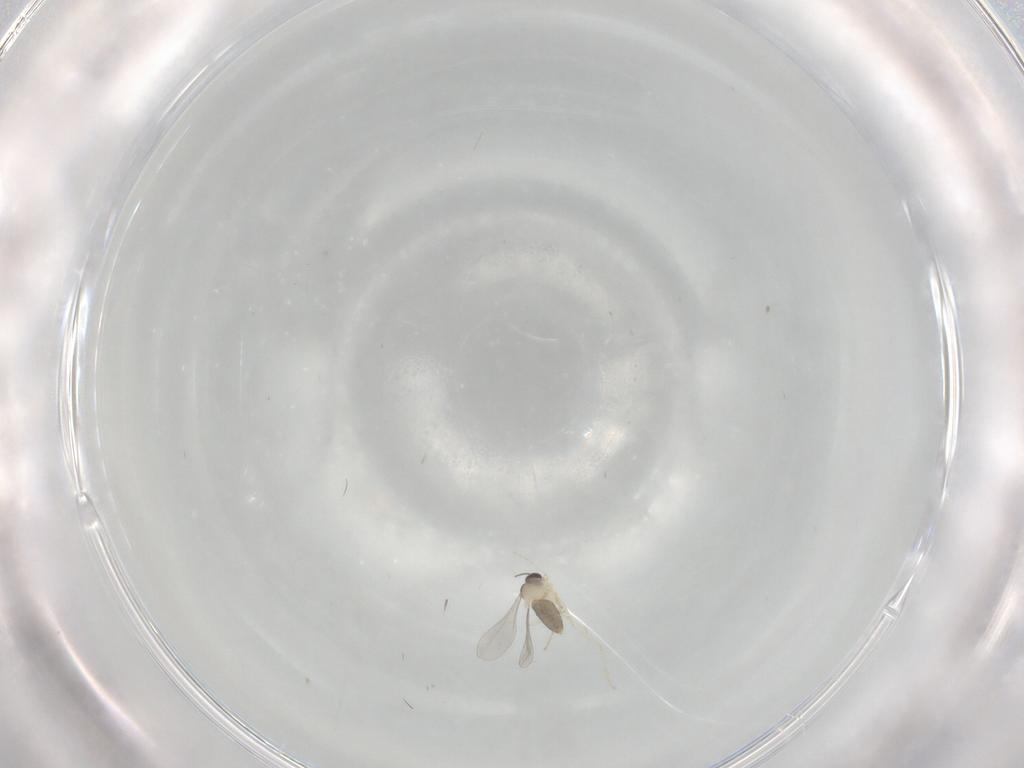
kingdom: Animalia
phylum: Arthropoda
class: Insecta
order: Diptera
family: Cecidomyiidae
